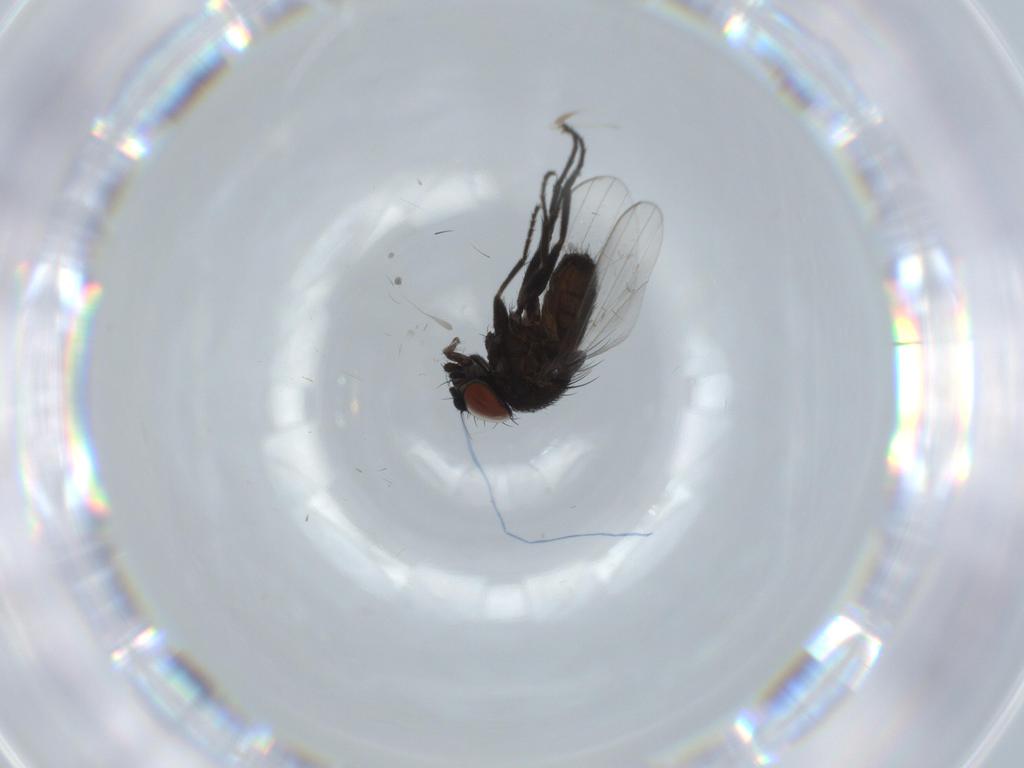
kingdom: Animalia
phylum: Arthropoda
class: Insecta
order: Diptera
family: Milichiidae
